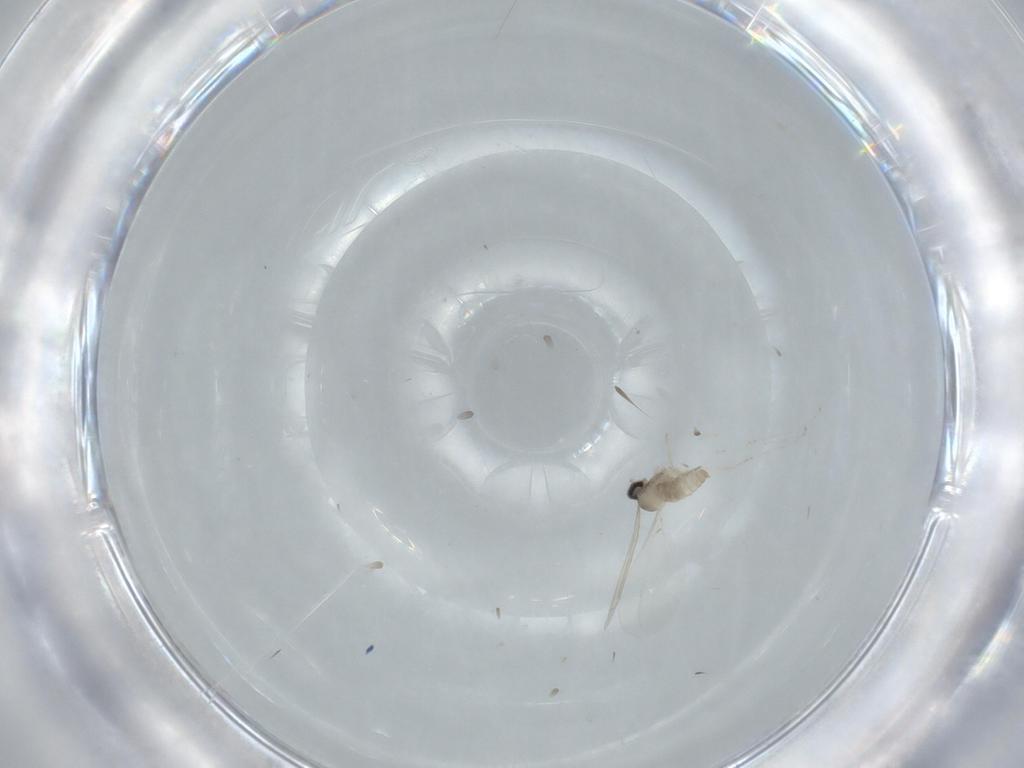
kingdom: Animalia
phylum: Arthropoda
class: Insecta
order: Diptera
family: Cecidomyiidae
